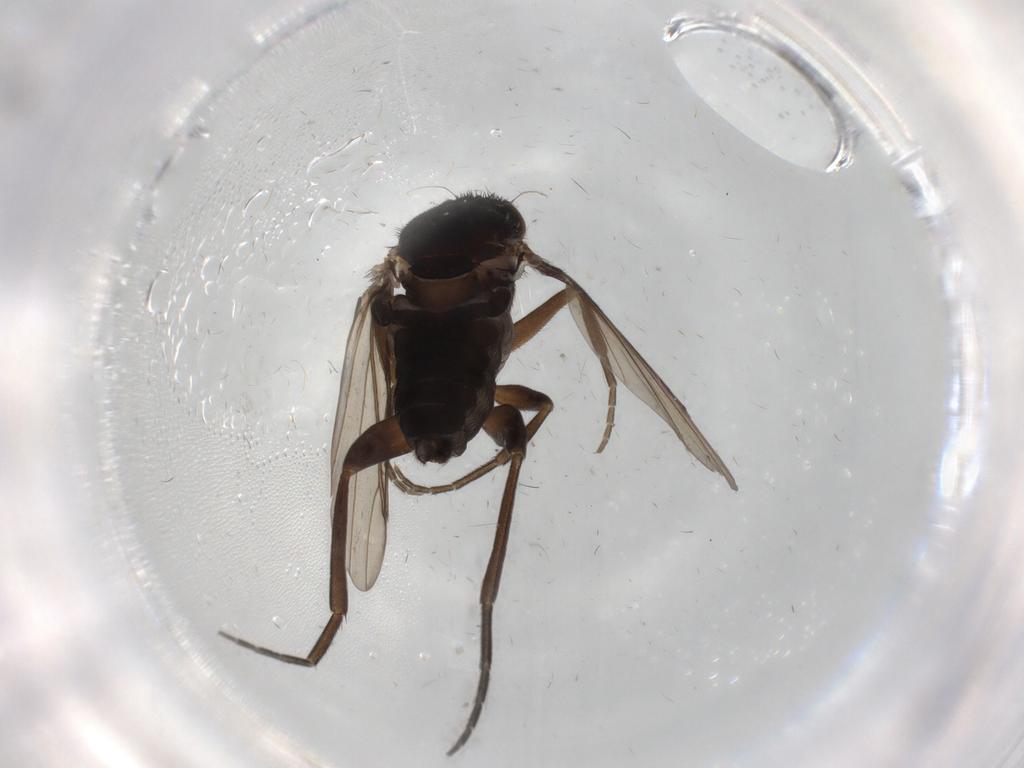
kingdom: Animalia
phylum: Arthropoda
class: Insecta
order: Diptera
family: Phoridae
